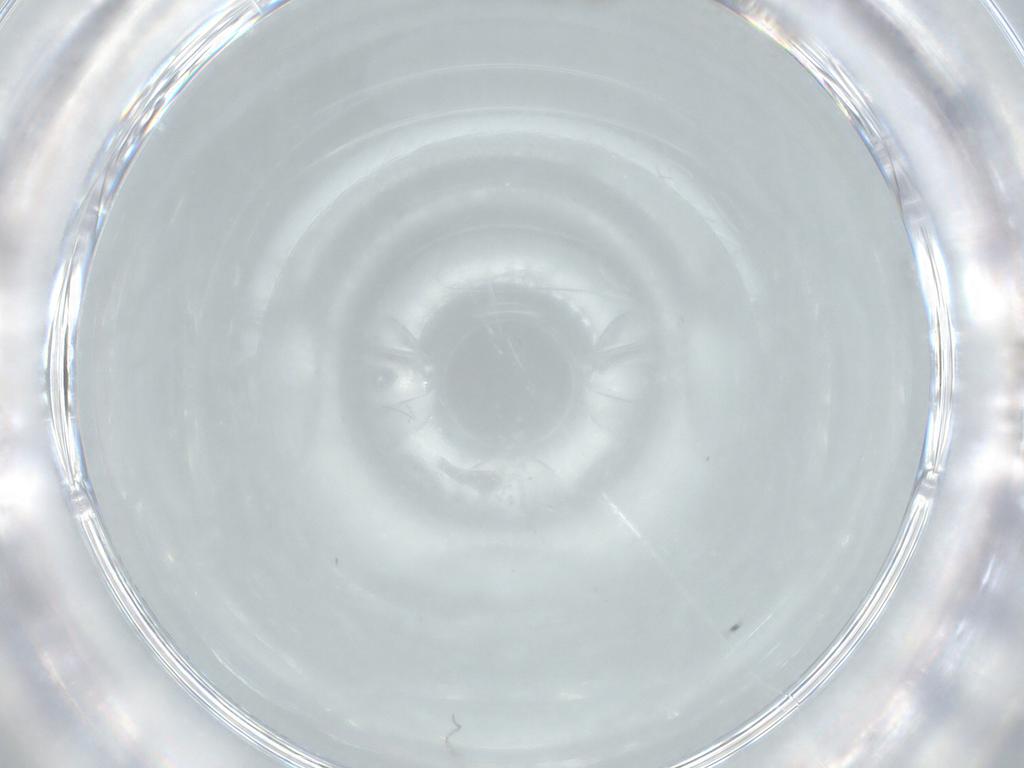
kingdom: Animalia
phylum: Arthropoda
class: Insecta
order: Diptera
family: Chironomidae
